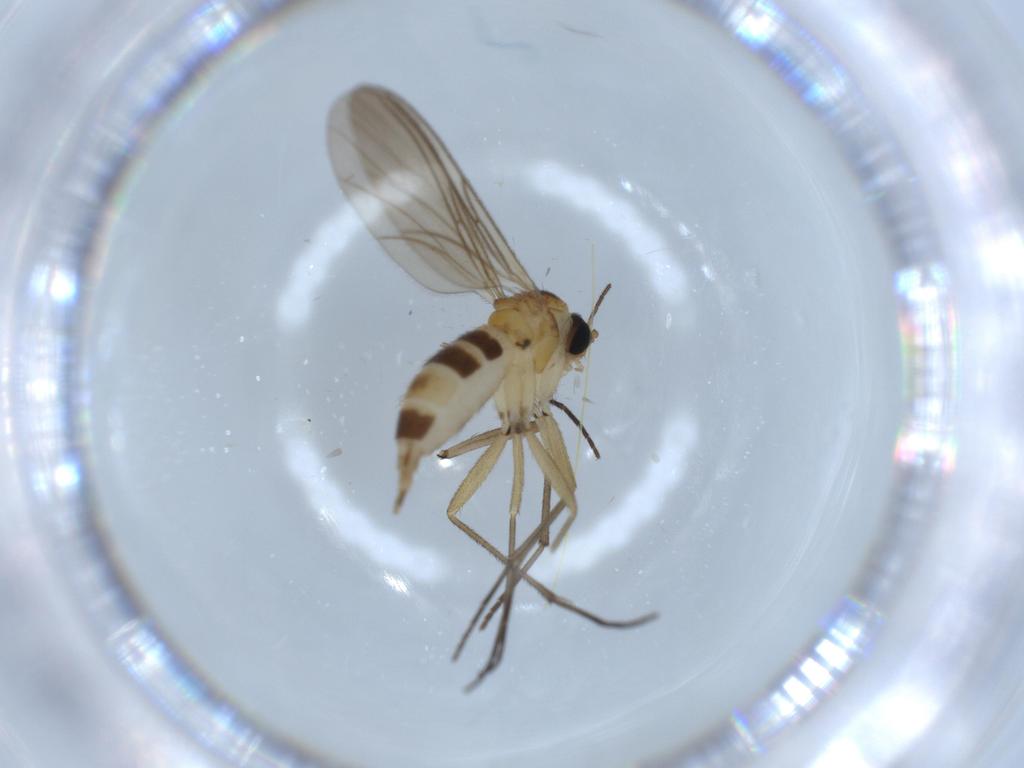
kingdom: Animalia
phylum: Arthropoda
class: Insecta
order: Diptera
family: Sciaridae
